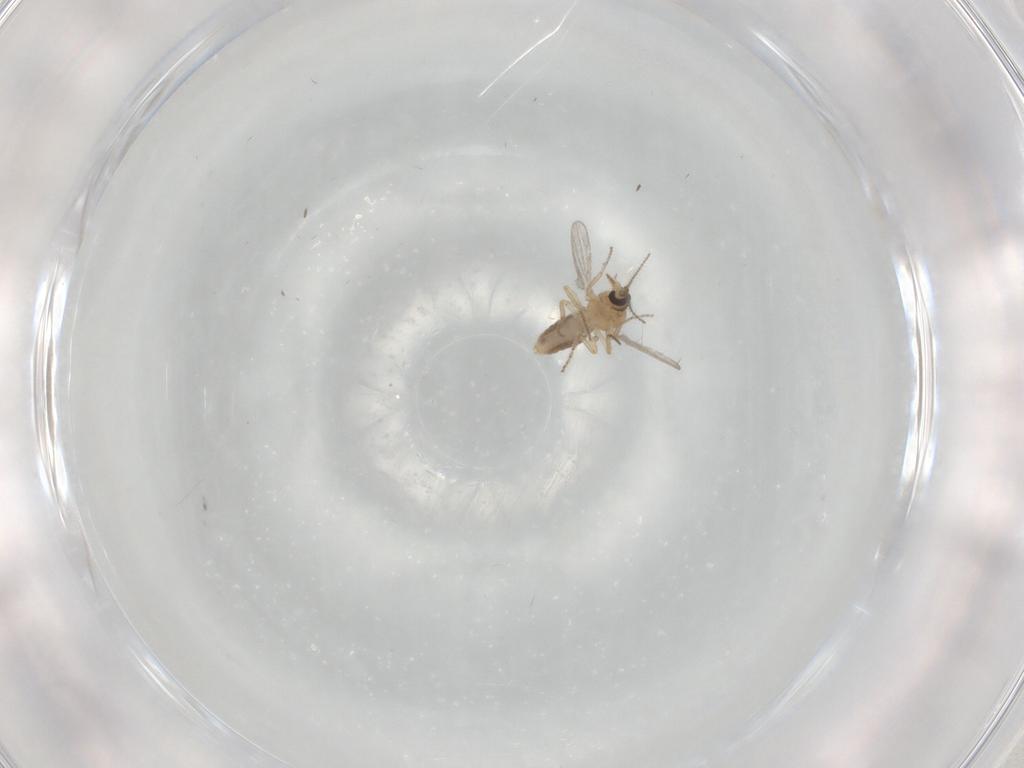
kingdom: Animalia
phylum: Arthropoda
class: Insecta
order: Diptera
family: Ceratopogonidae
